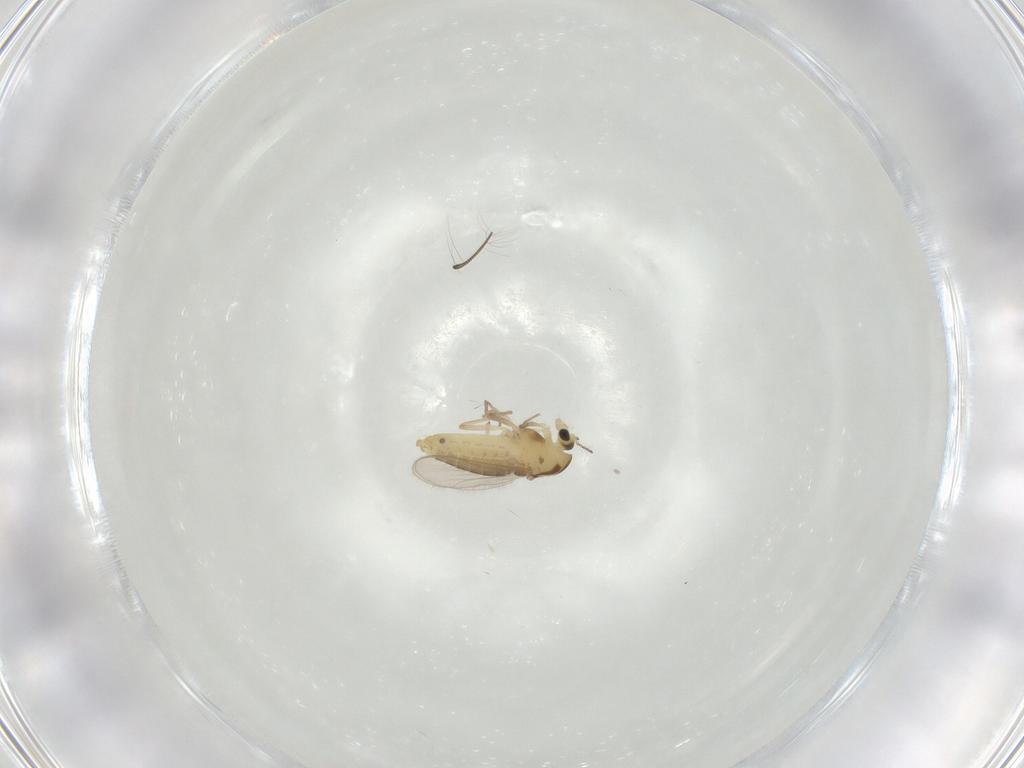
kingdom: Animalia
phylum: Arthropoda
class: Insecta
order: Diptera
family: Chironomidae
